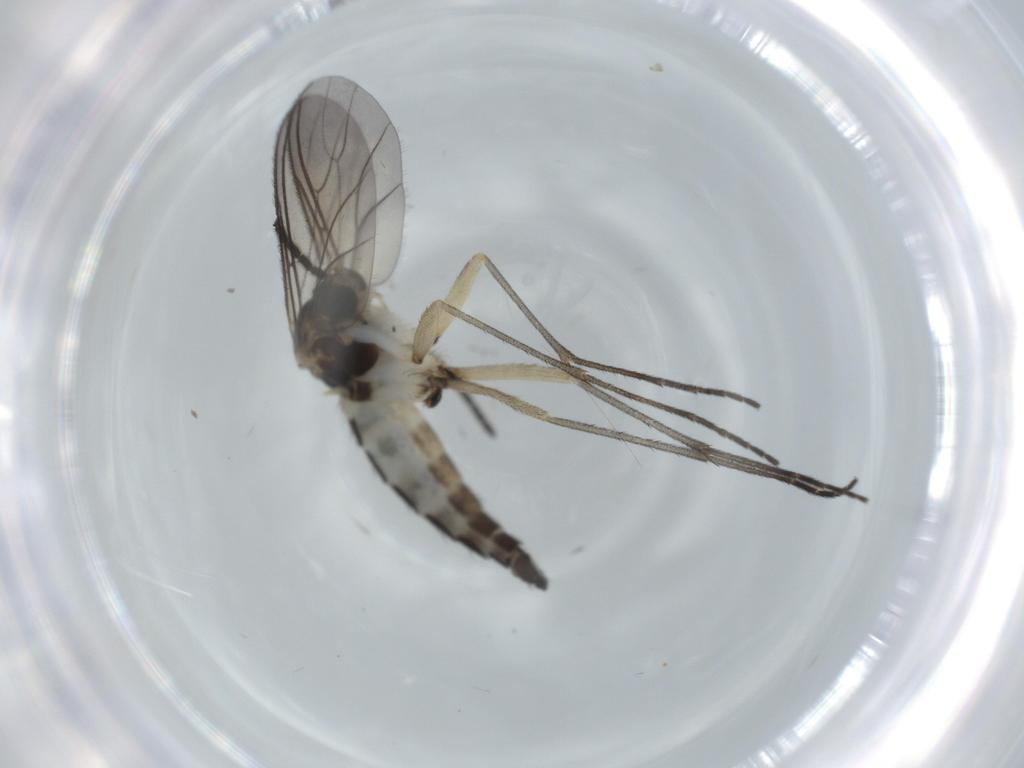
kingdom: Animalia
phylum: Arthropoda
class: Insecta
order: Diptera
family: Sciaridae
